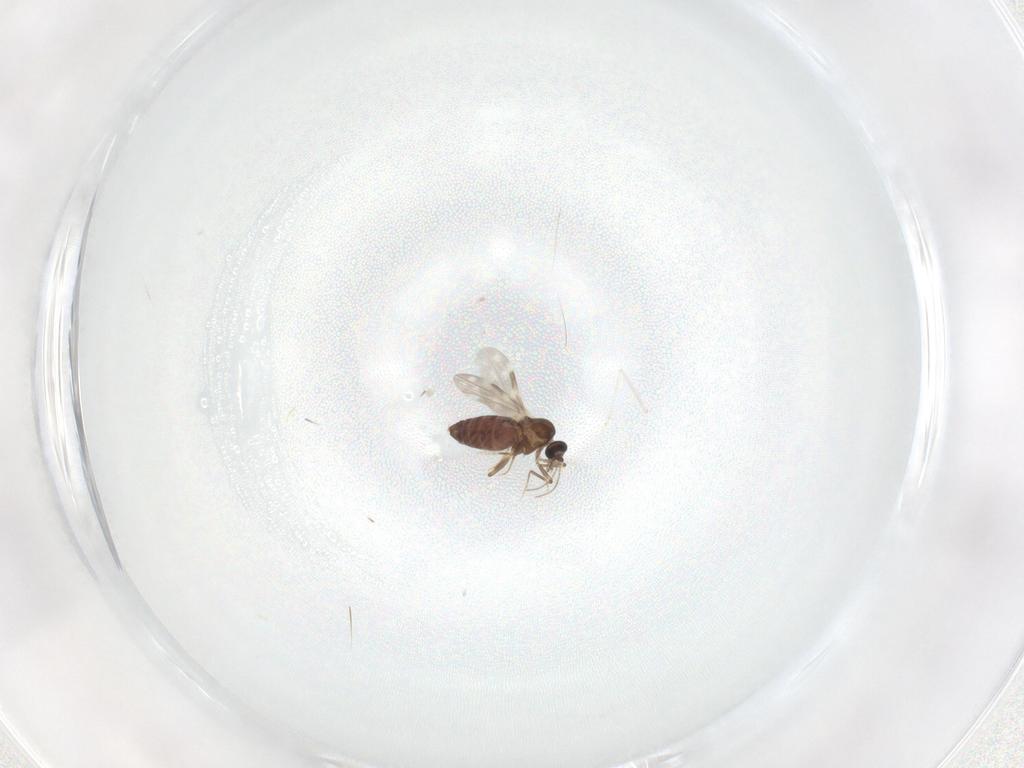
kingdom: Animalia
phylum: Arthropoda
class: Insecta
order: Diptera
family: Ceratopogonidae
